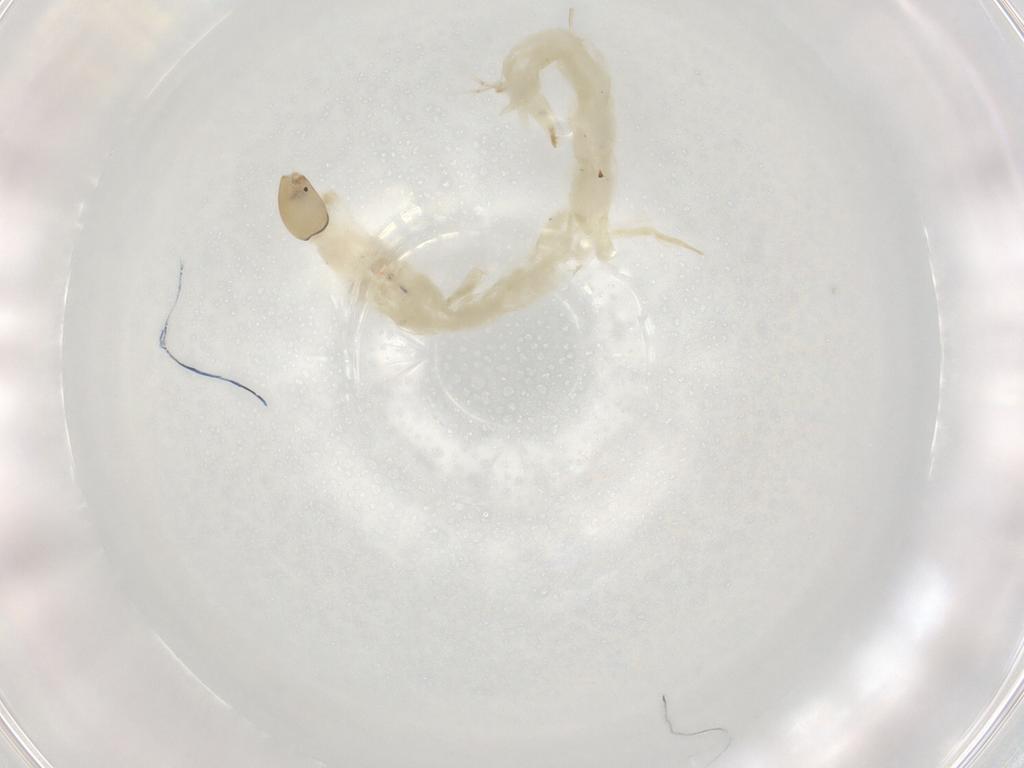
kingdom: Animalia
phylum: Arthropoda
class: Insecta
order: Diptera
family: Chironomidae
